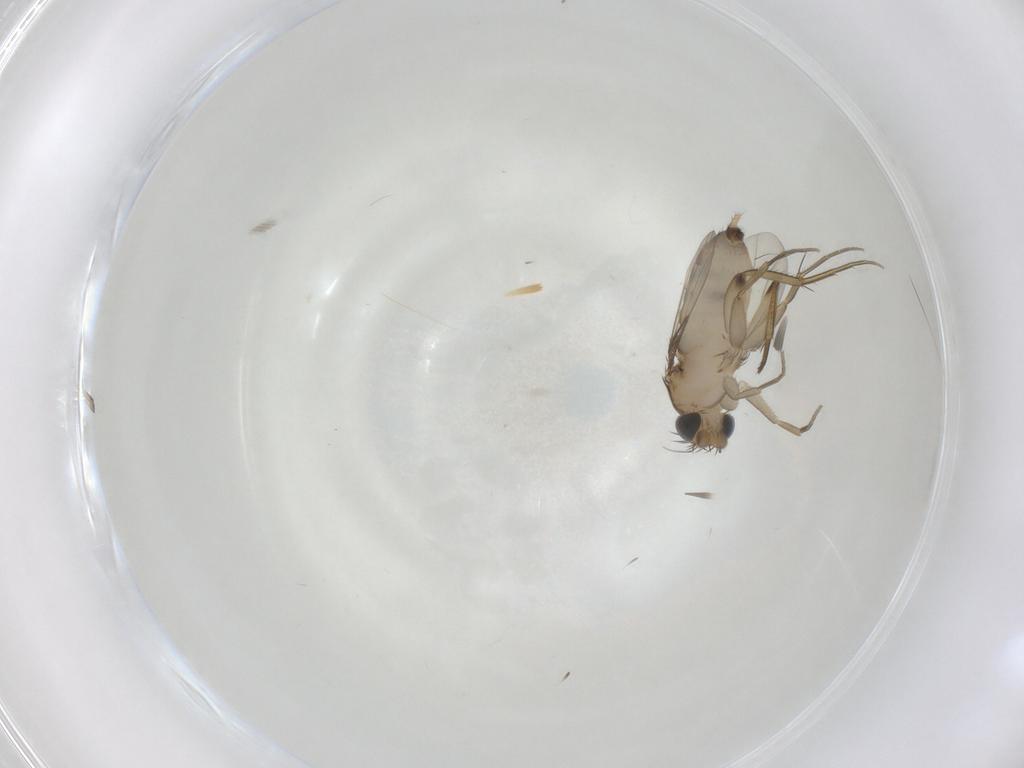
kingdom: Animalia
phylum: Arthropoda
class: Insecta
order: Diptera
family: Phoridae
